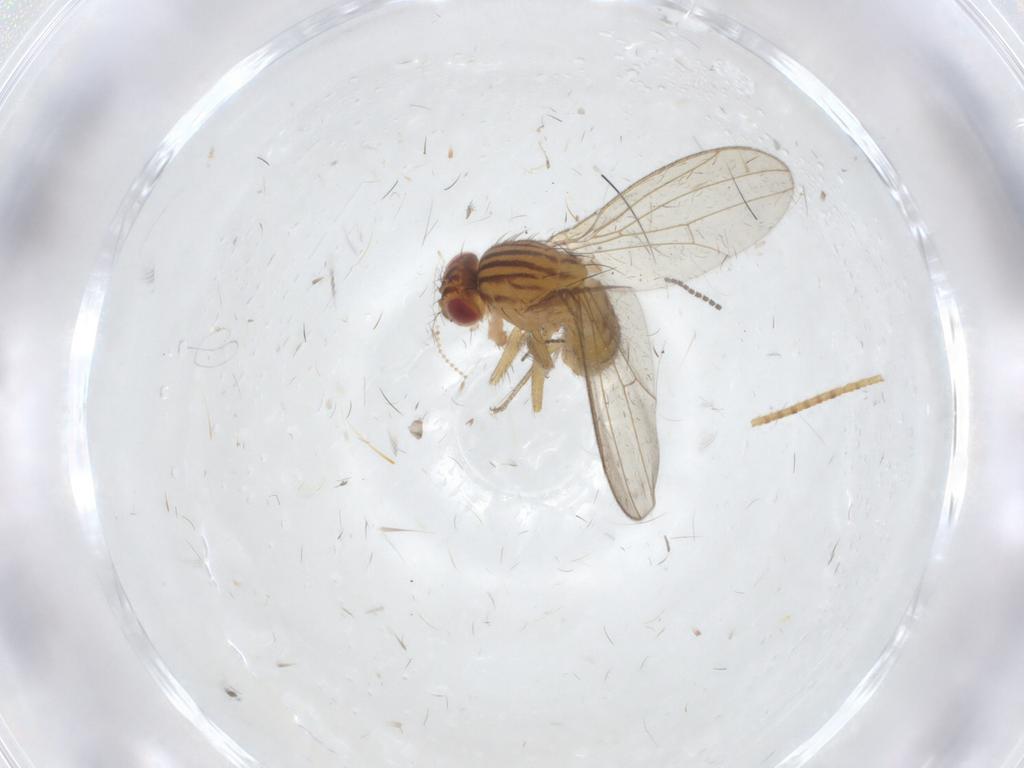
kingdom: Animalia
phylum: Arthropoda
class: Insecta
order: Diptera
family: Drosophilidae
